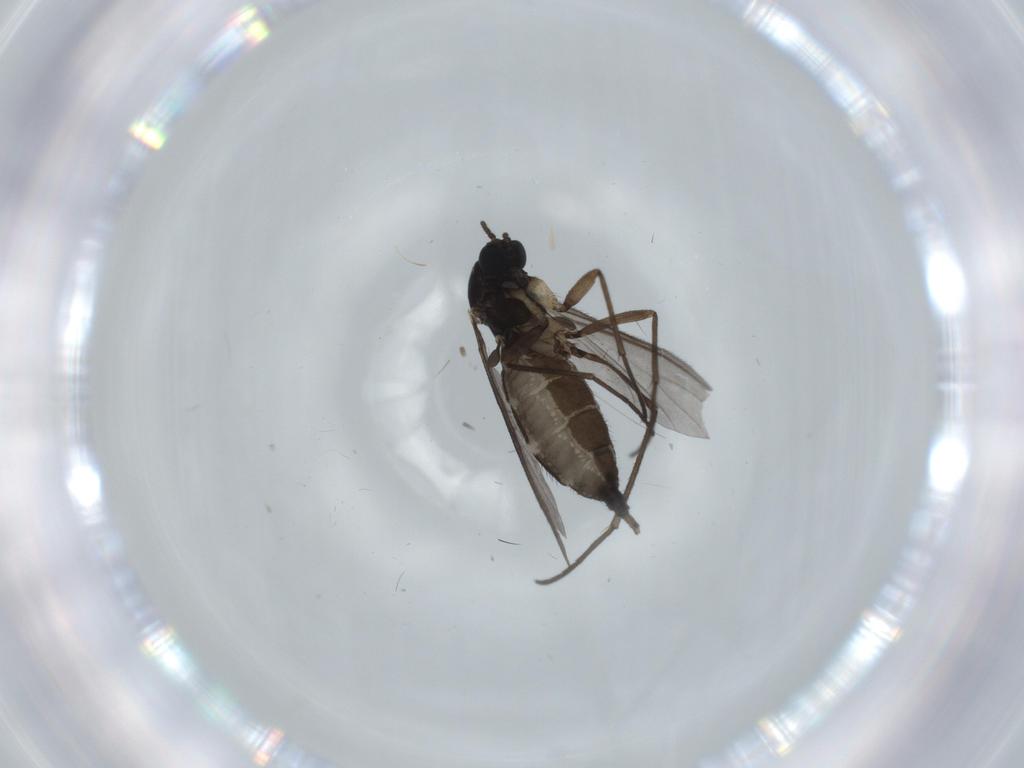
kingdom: Animalia
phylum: Arthropoda
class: Insecta
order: Diptera
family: Sciaridae
